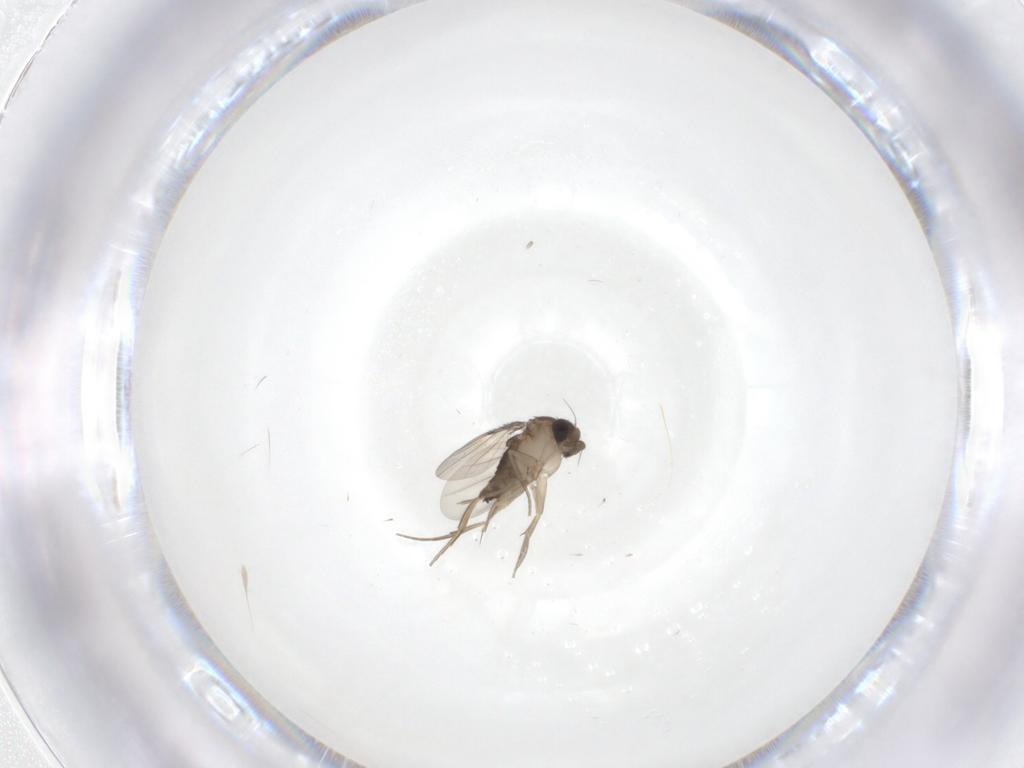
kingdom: Animalia
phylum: Arthropoda
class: Insecta
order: Diptera
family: Phoridae
